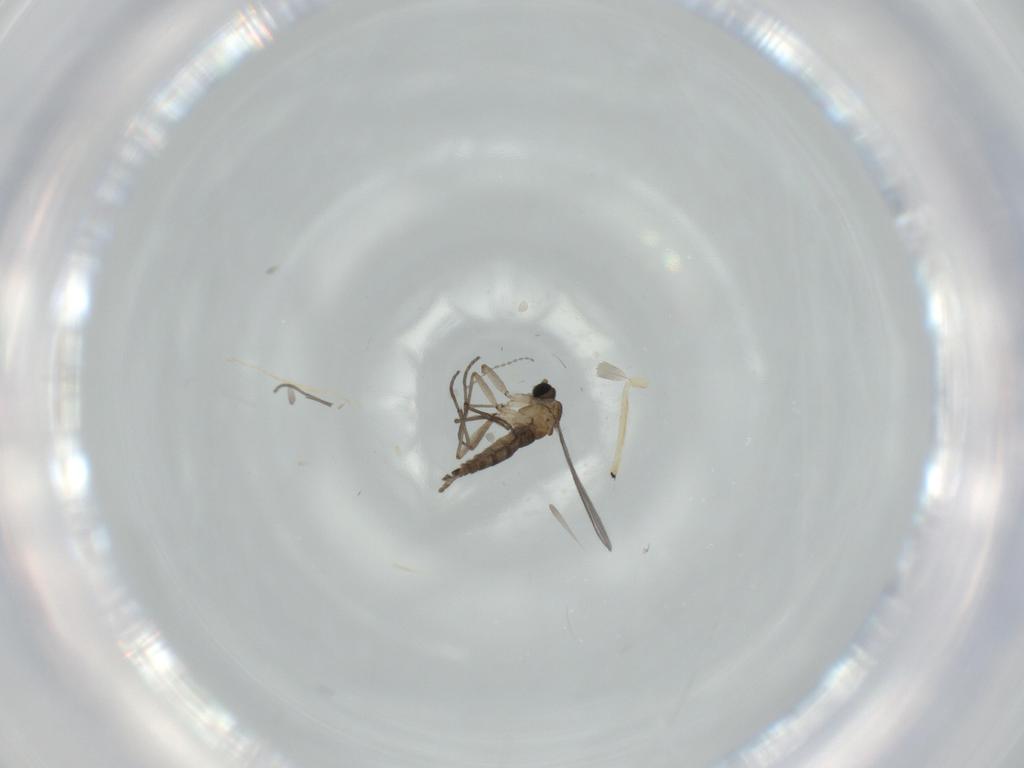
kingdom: Animalia
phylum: Arthropoda
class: Insecta
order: Diptera
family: Sciaridae
